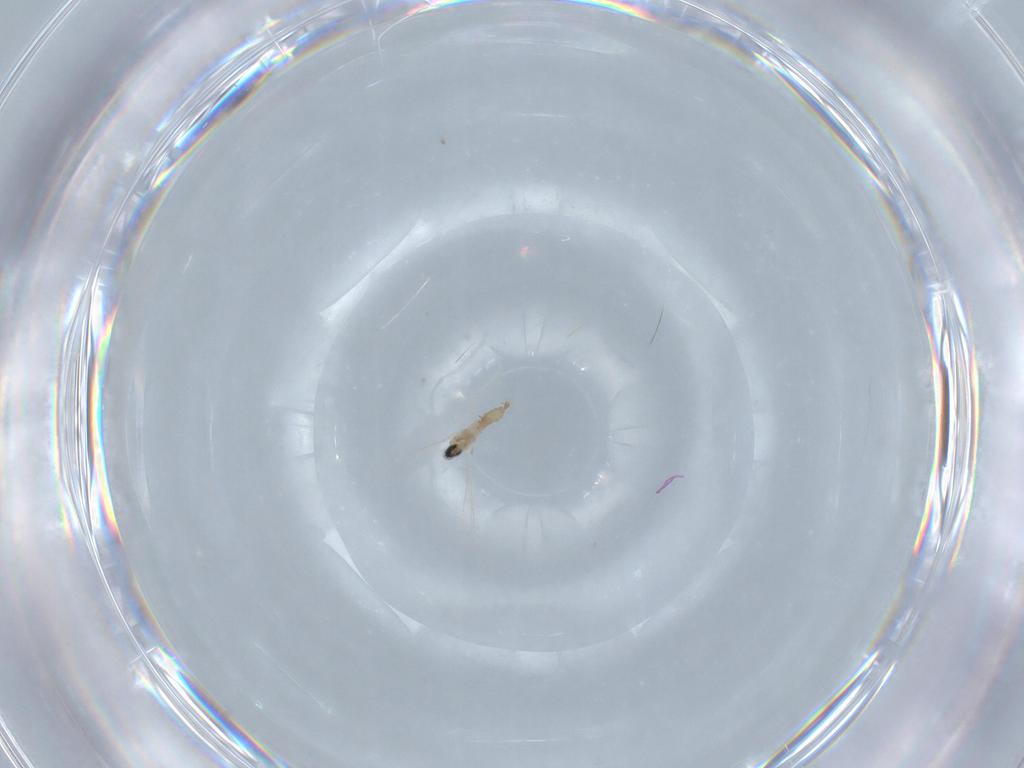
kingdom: Animalia
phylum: Arthropoda
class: Insecta
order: Diptera
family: Cecidomyiidae
